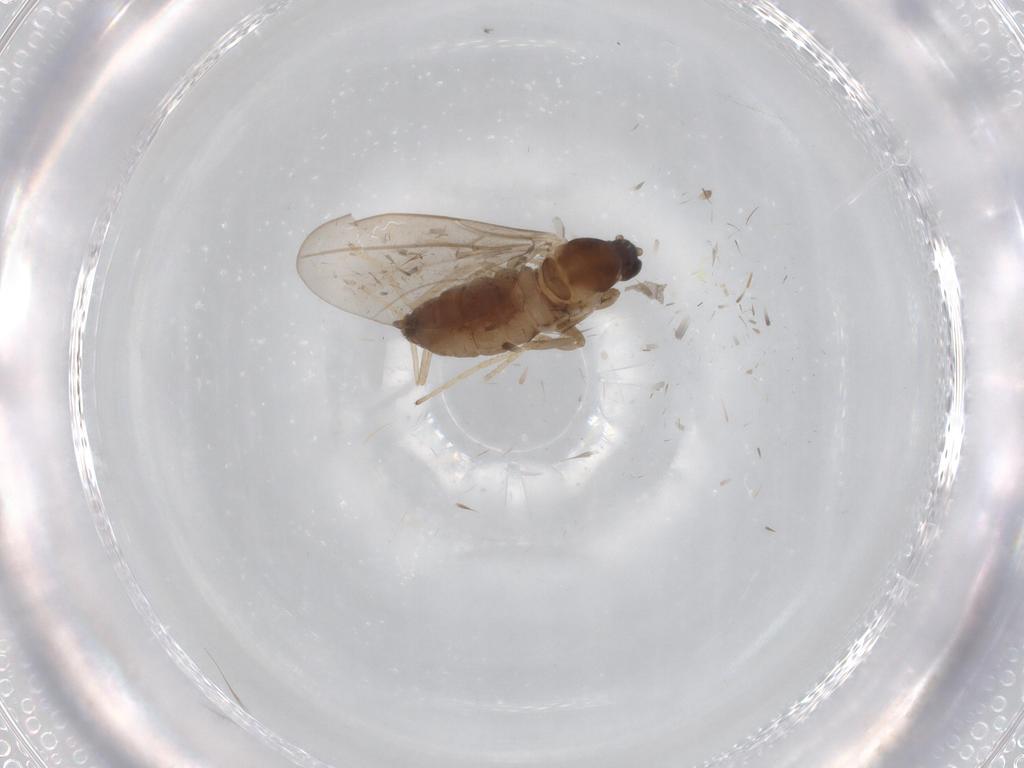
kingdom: Animalia
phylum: Arthropoda
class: Insecta
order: Diptera
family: Cecidomyiidae
